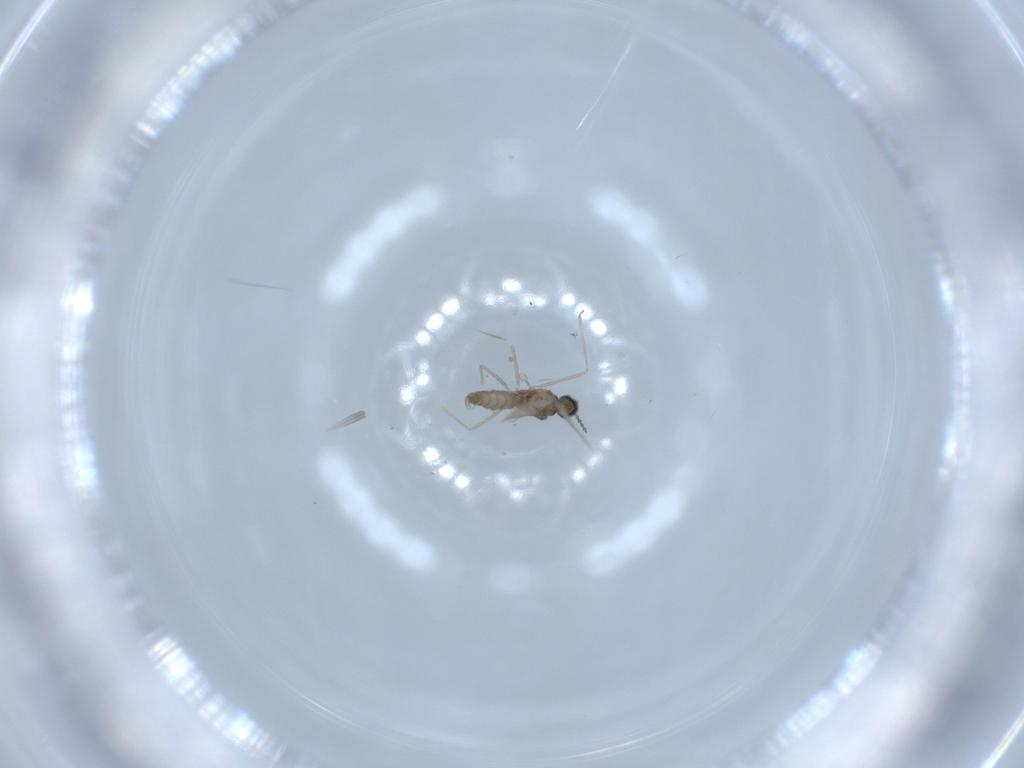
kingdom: Animalia
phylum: Arthropoda
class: Insecta
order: Diptera
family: Cecidomyiidae
